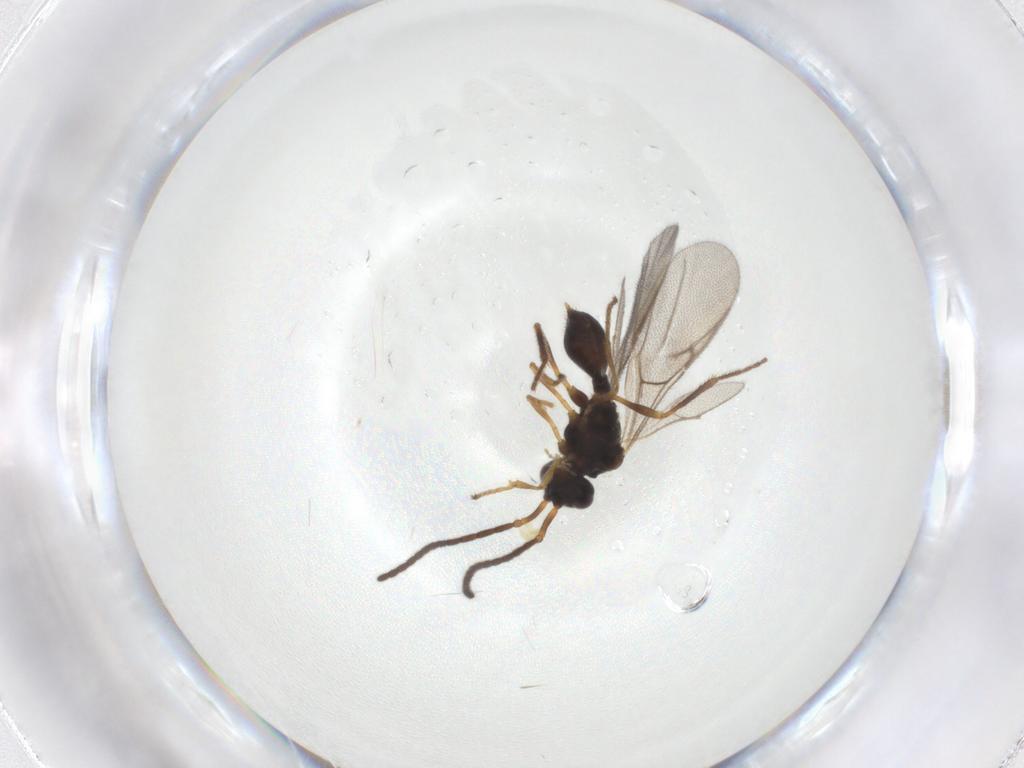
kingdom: Animalia
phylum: Arthropoda
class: Insecta
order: Hymenoptera
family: Diapriidae
